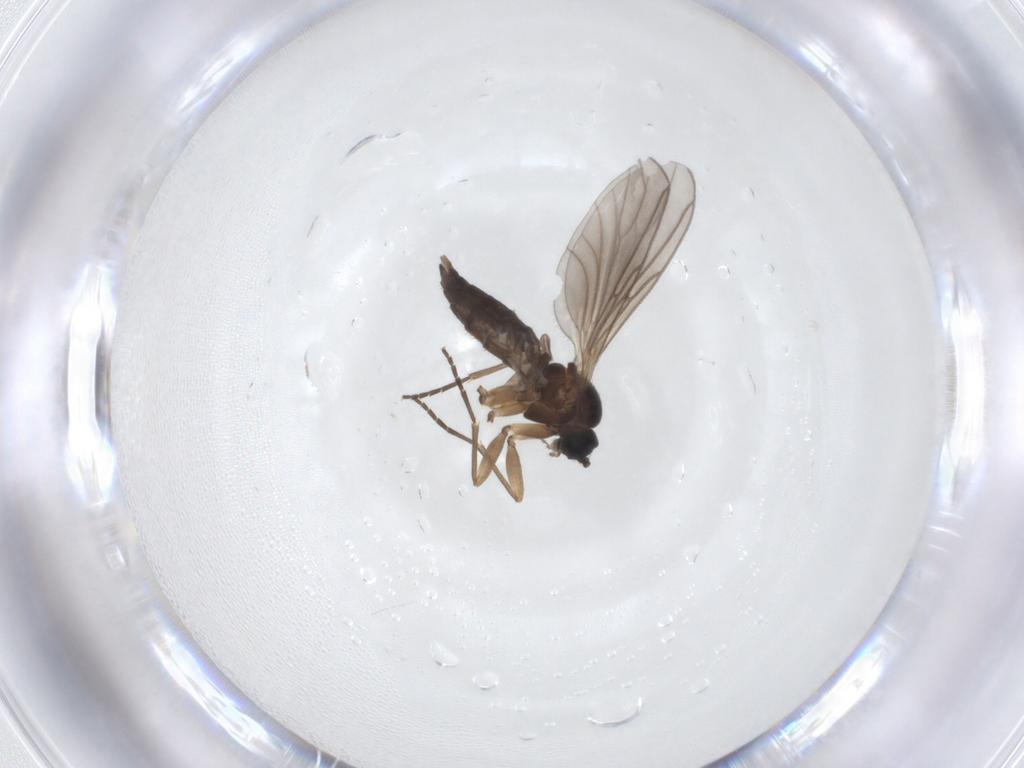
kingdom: Animalia
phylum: Arthropoda
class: Insecta
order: Diptera
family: Sciaridae
